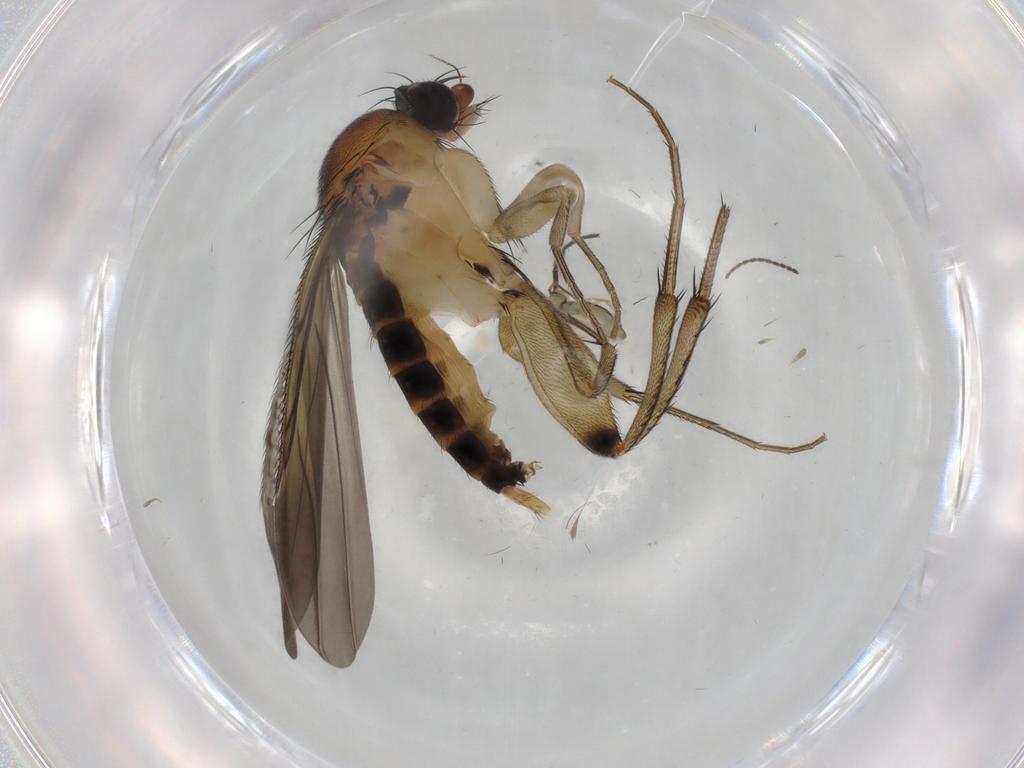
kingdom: Animalia
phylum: Arthropoda
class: Insecta
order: Diptera
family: Sciaridae
